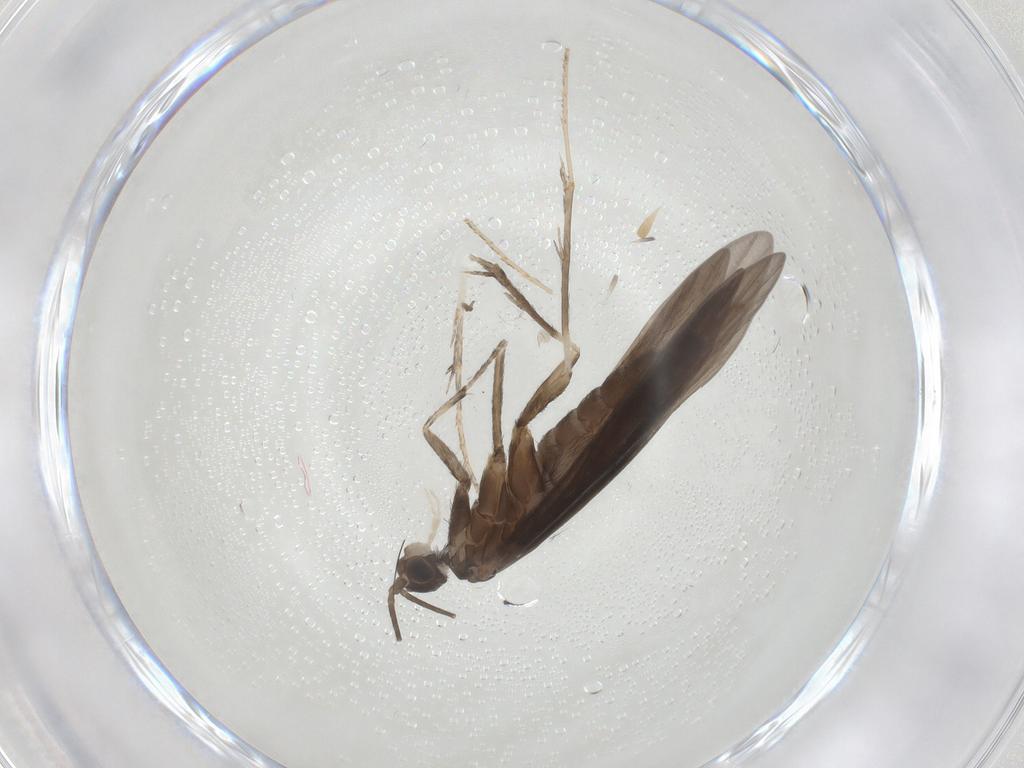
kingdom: Animalia
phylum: Arthropoda
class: Insecta
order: Trichoptera
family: Xiphocentronidae
